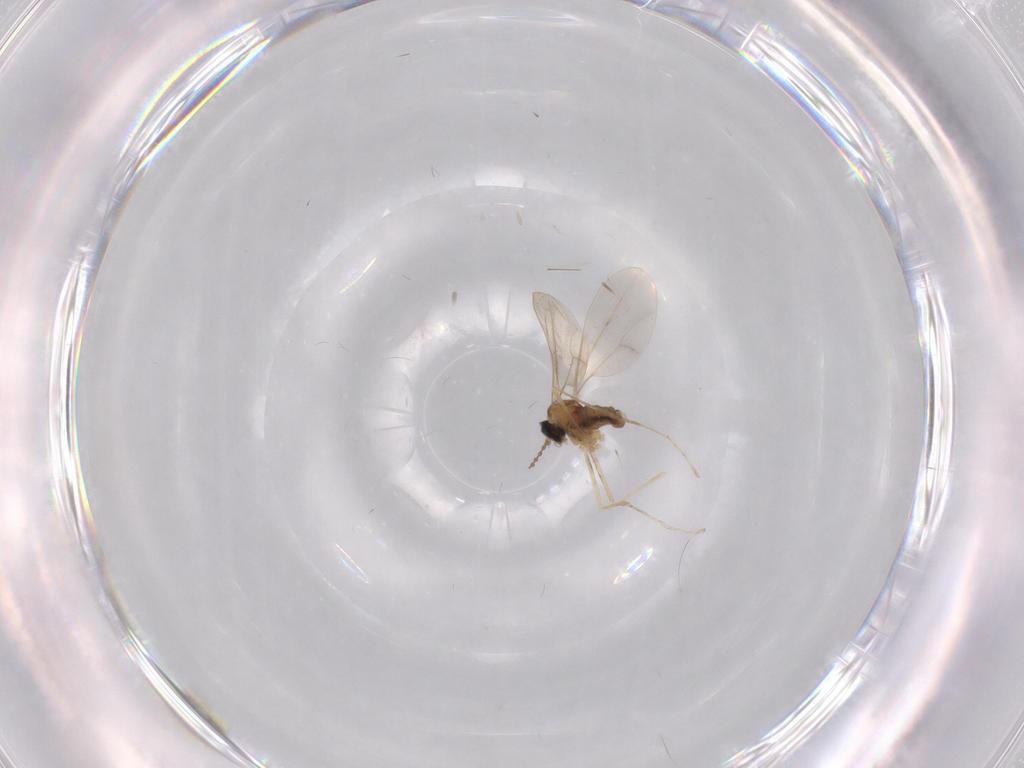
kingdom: Animalia
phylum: Arthropoda
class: Insecta
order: Diptera
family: Cecidomyiidae
